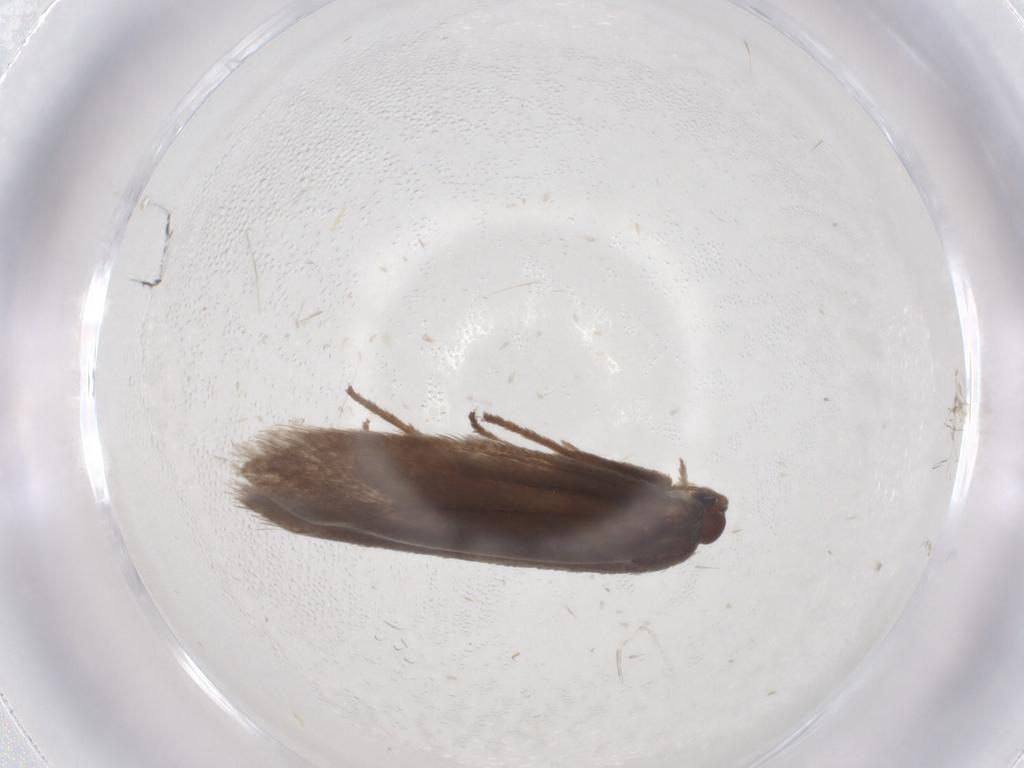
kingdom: Animalia
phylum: Arthropoda
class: Insecta
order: Lepidoptera
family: Limacodidae
